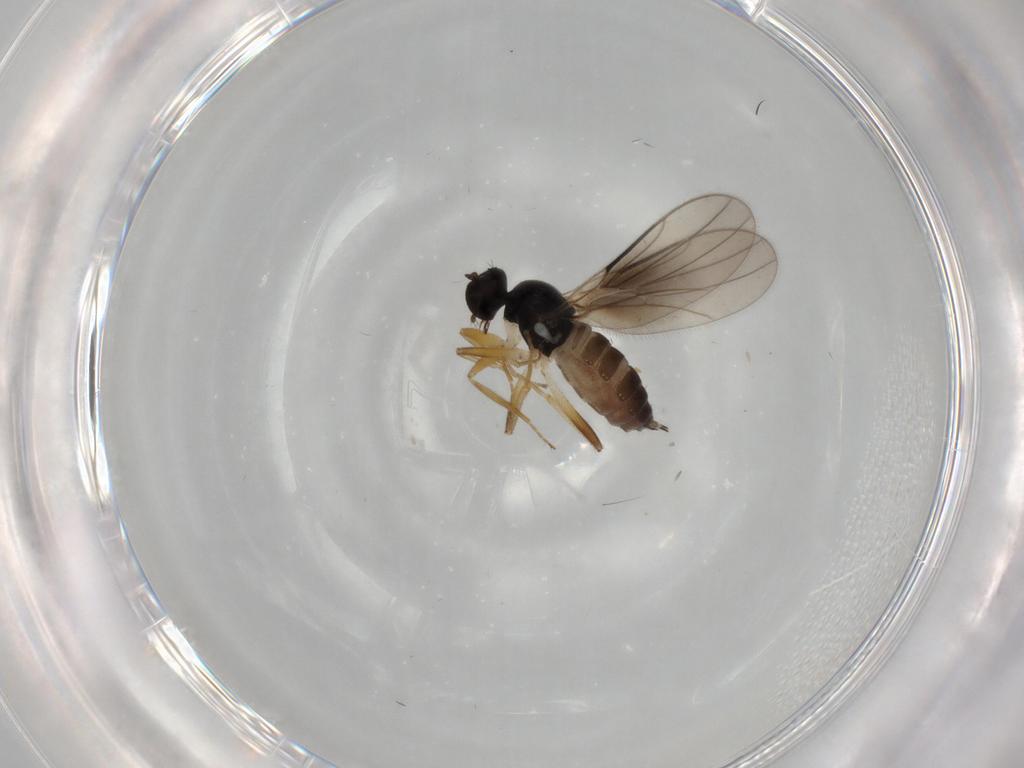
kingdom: Animalia
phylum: Arthropoda
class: Insecta
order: Diptera
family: Hybotidae
